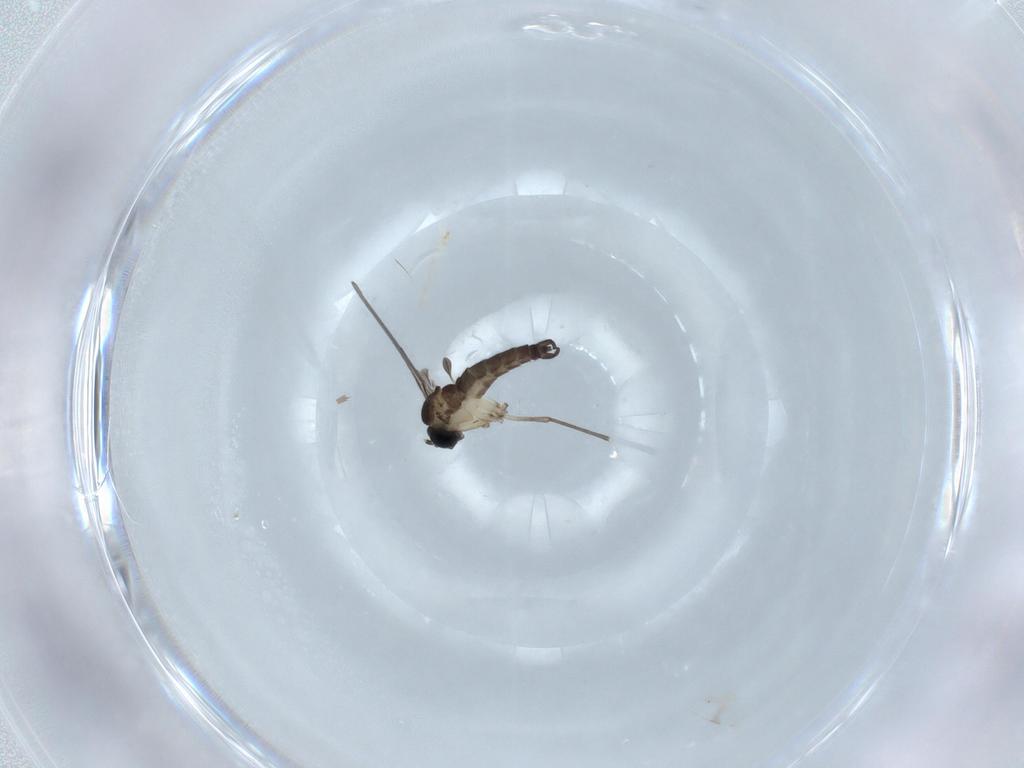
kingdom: Animalia
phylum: Arthropoda
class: Insecta
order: Diptera
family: Sciaridae
